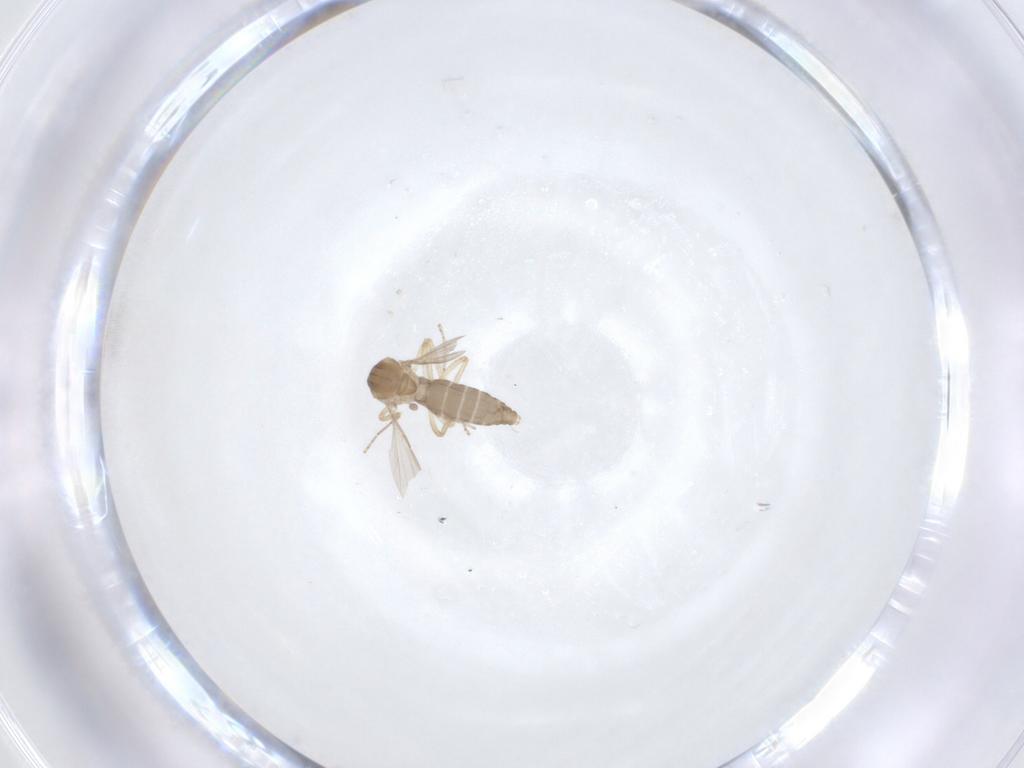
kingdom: Animalia
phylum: Arthropoda
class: Insecta
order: Diptera
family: Ceratopogonidae
